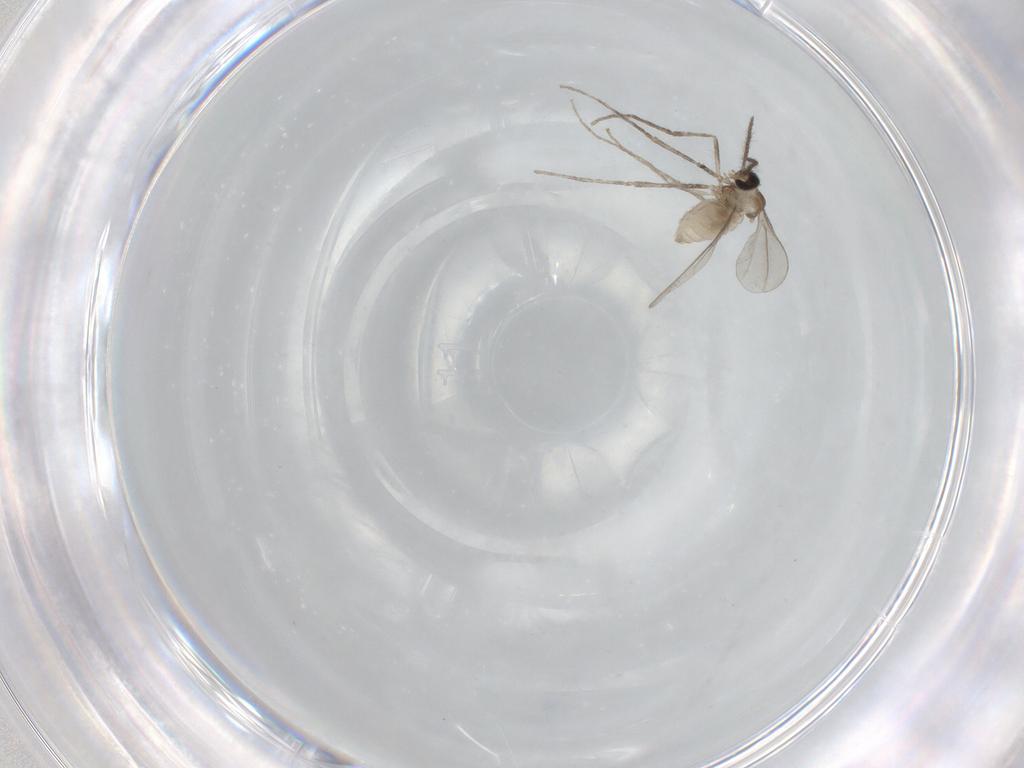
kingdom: Animalia
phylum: Arthropoda
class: Insecta
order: Diptera
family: Cecidomyiidae
